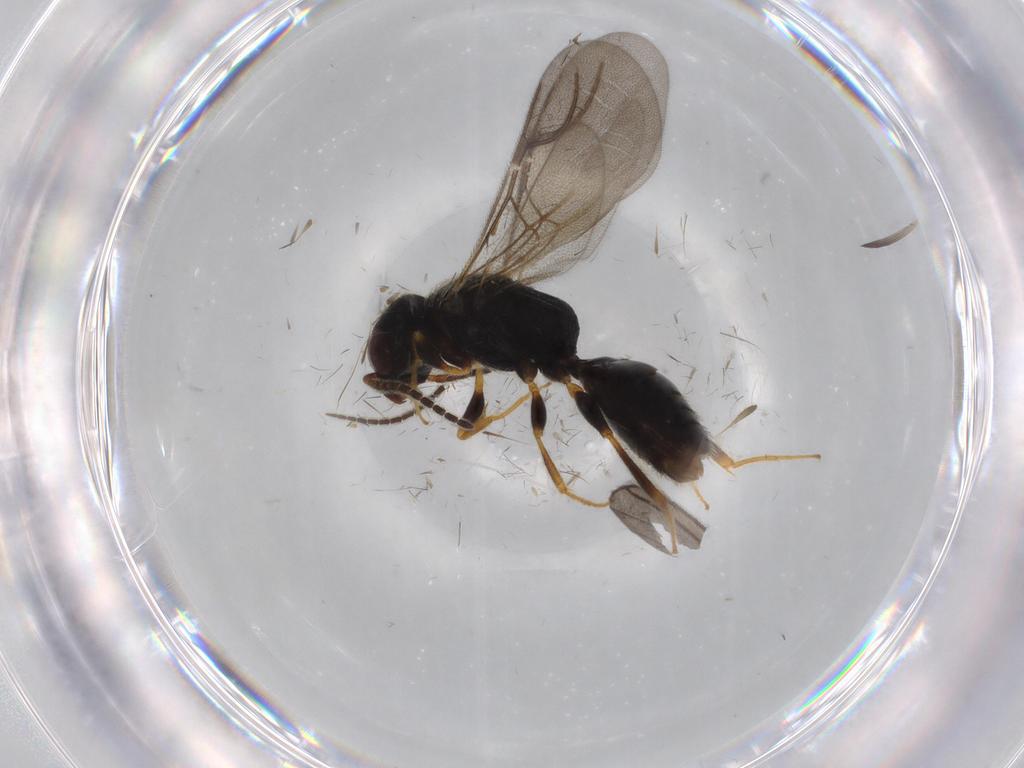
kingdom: Animalia
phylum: Arthropoda
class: Insecta
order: Hymenoptera
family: Bethylidae
